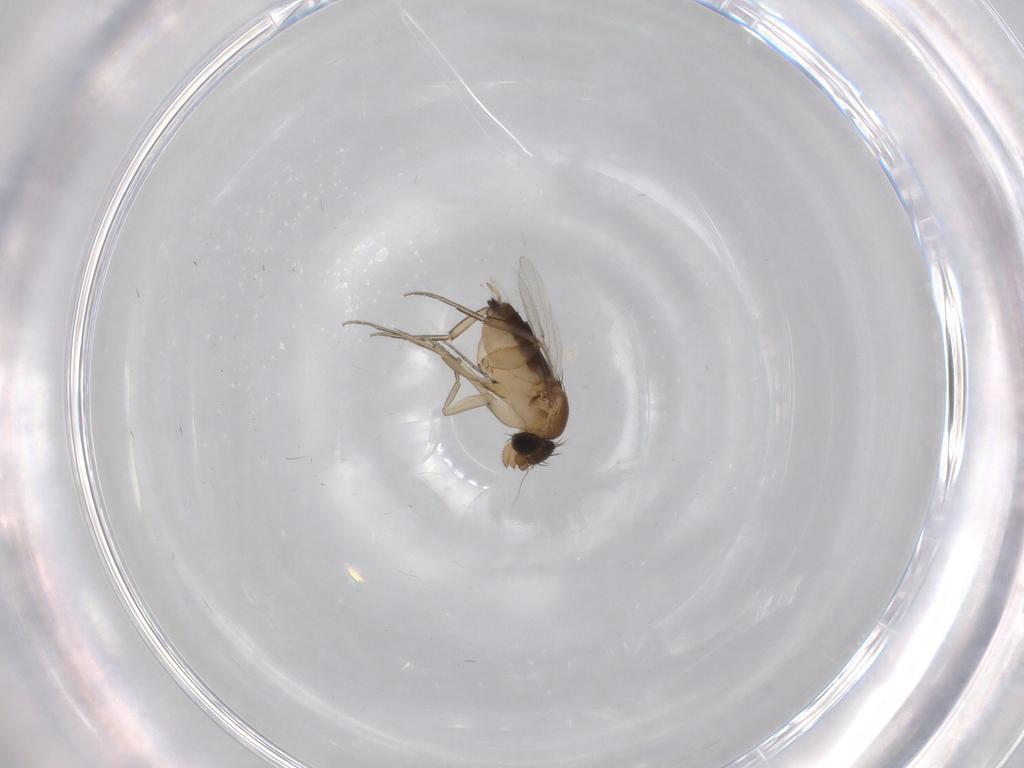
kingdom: Animalia
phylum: Arthropoda
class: Insecta
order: Diptera
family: Chironomidae
